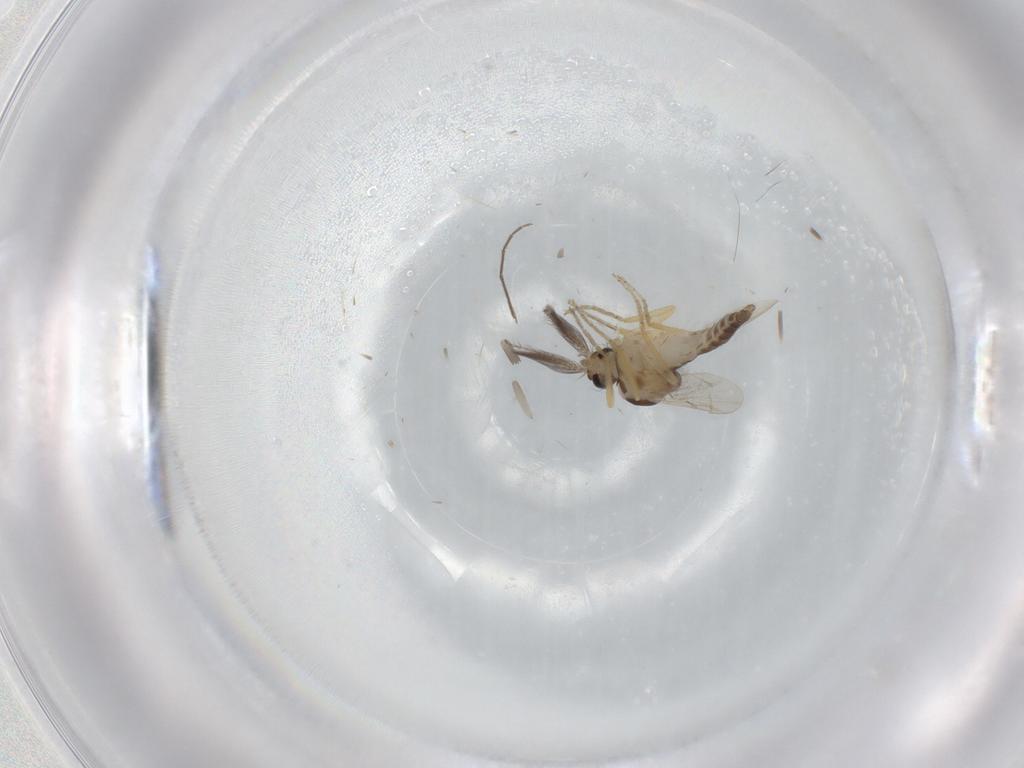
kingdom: Animalia
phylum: Arthropoda
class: Insecta
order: Diptera
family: Ceratopogonidae
